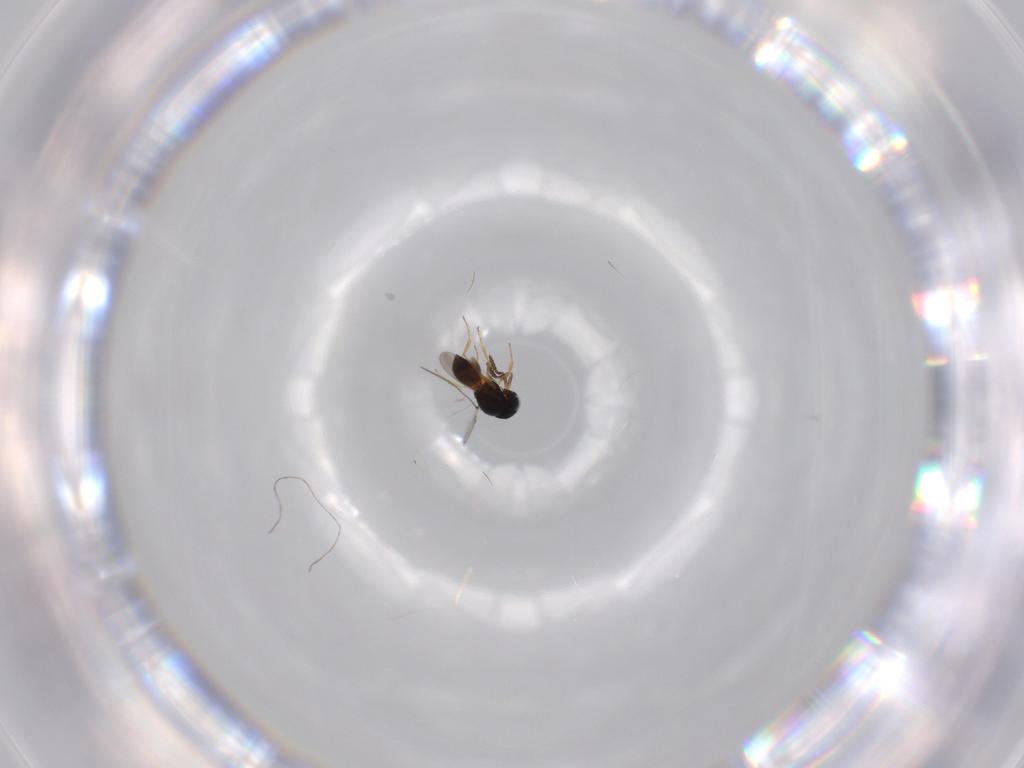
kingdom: Animalia
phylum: Arthropoda
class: Insecta
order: Hymenoptera
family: Scelionidae
